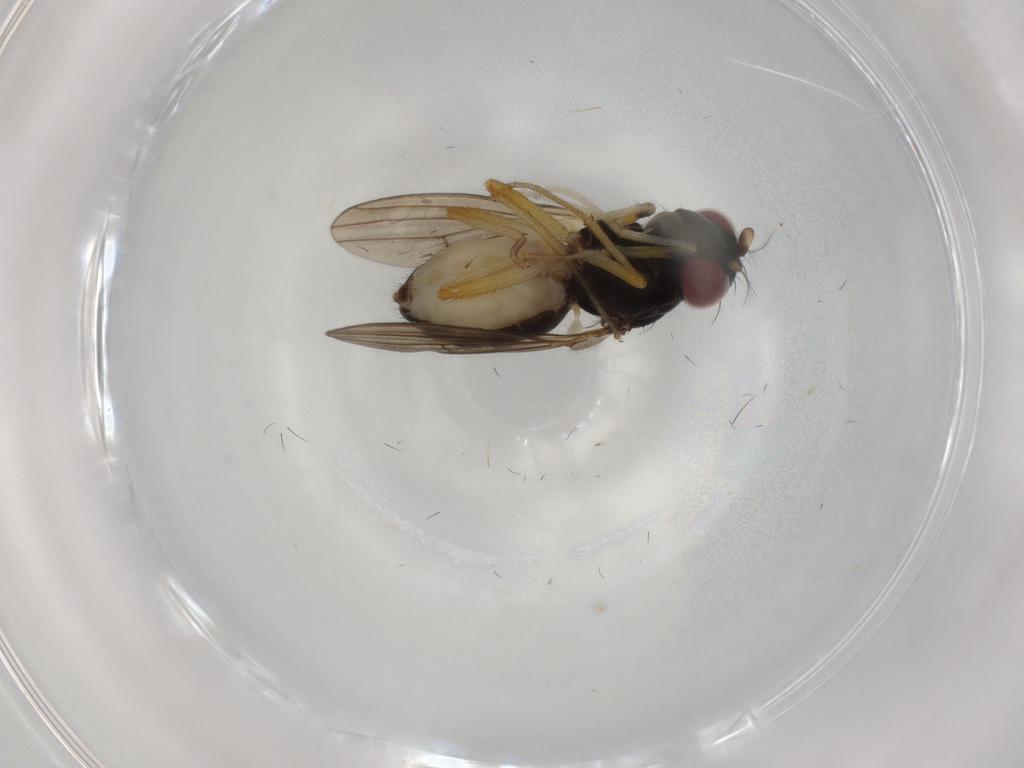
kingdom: Animalia
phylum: Arthropoda
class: Insecta
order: Diptera
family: Lauxaniidae
